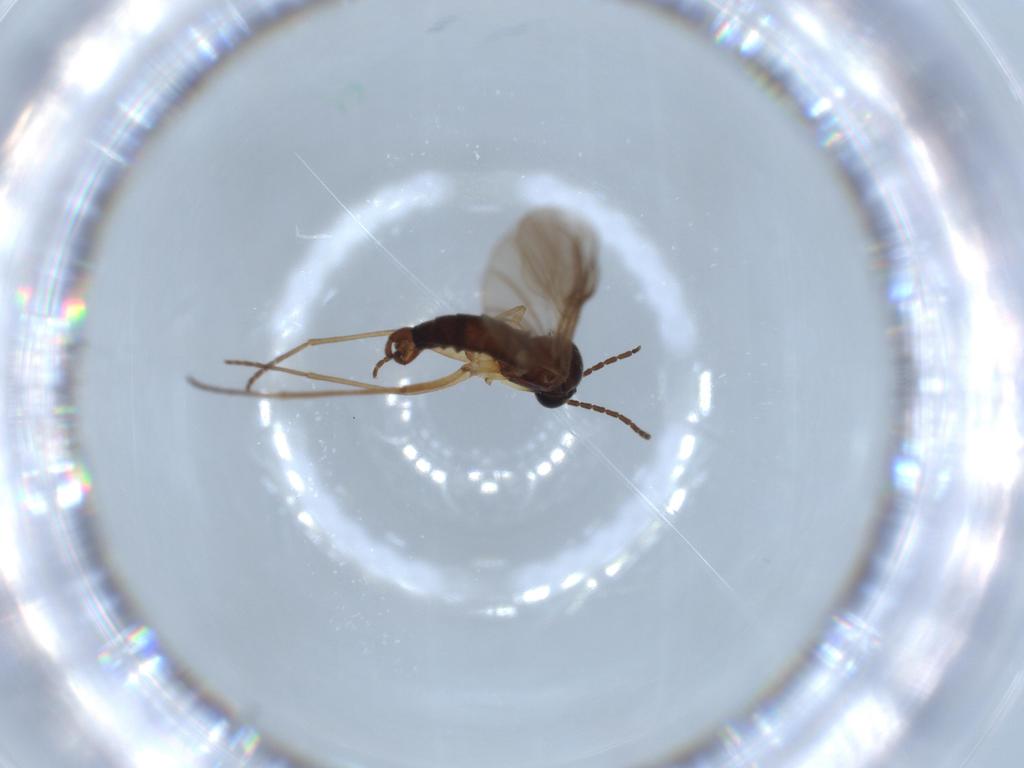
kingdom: Animalia
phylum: Arthropoda
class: Insecta
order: Diptera
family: Sciaridae
